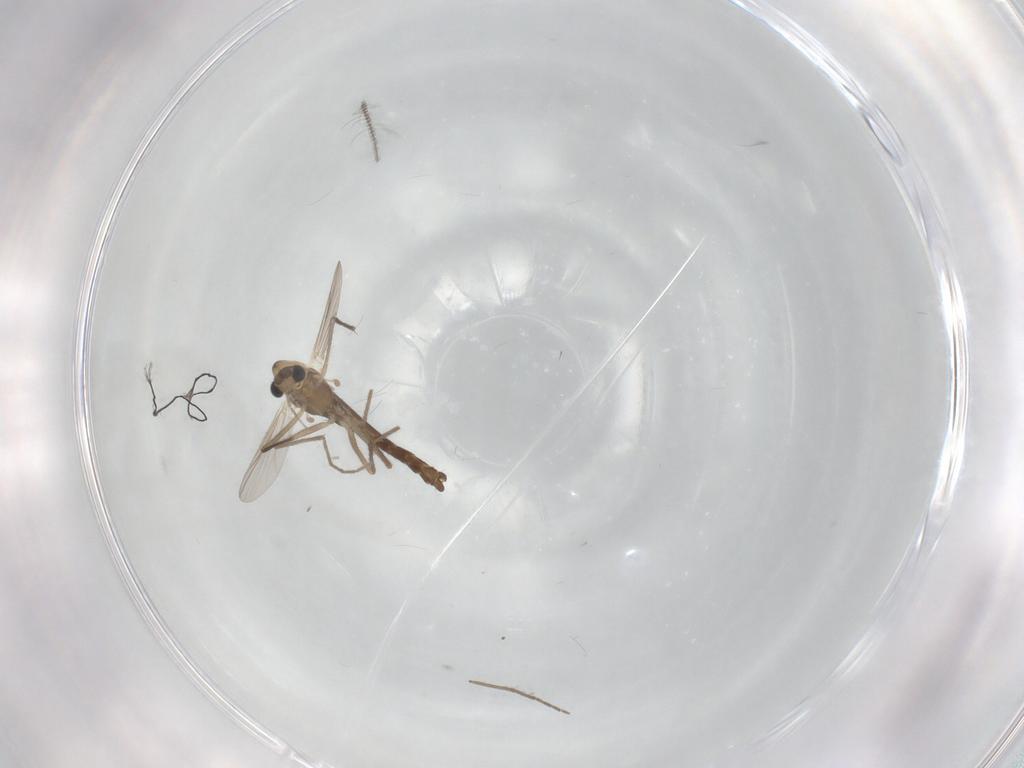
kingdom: Animalia
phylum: Arthropoda
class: Insecta
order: Diptera
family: Chironomidae
